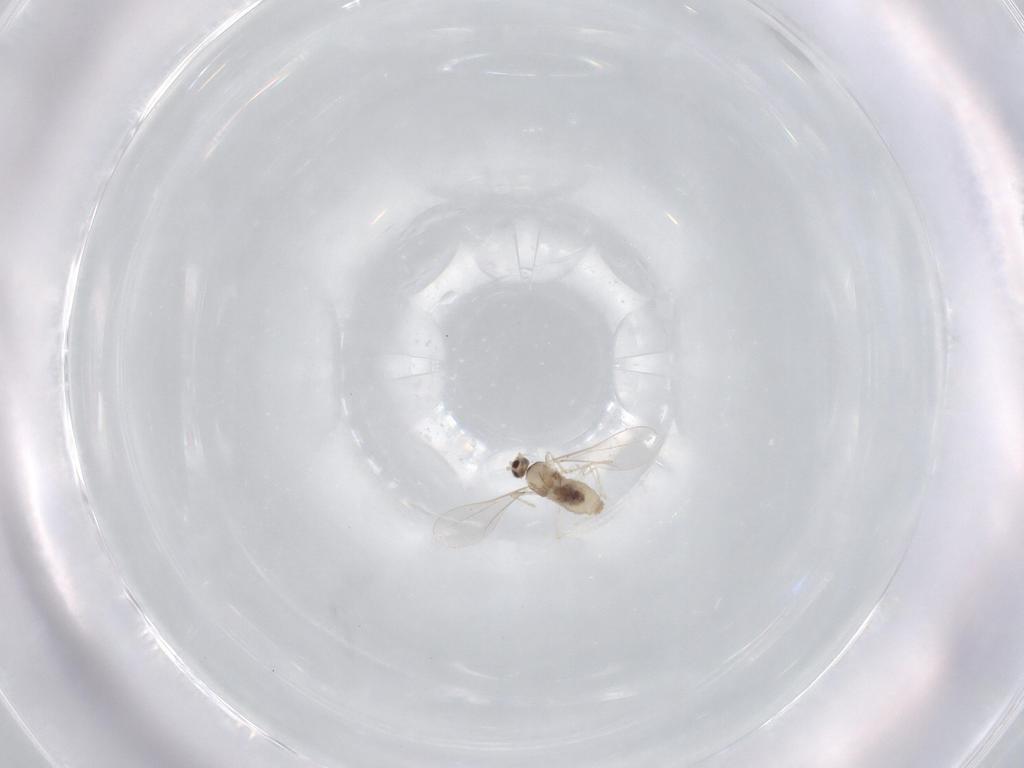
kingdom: Animalia
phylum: Arthropoda
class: Insecta
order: Diptera
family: Cecidomyiidae
